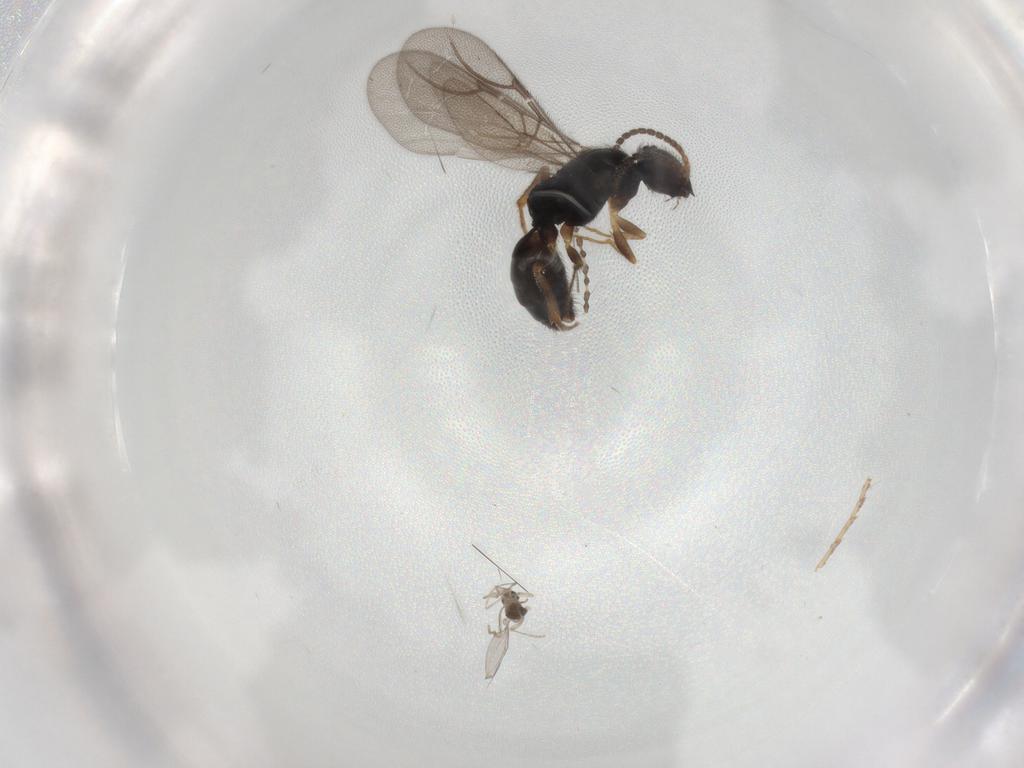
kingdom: Animalia
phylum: Arthropoda
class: Insecta
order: Diptera
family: Cecidomyiidae
